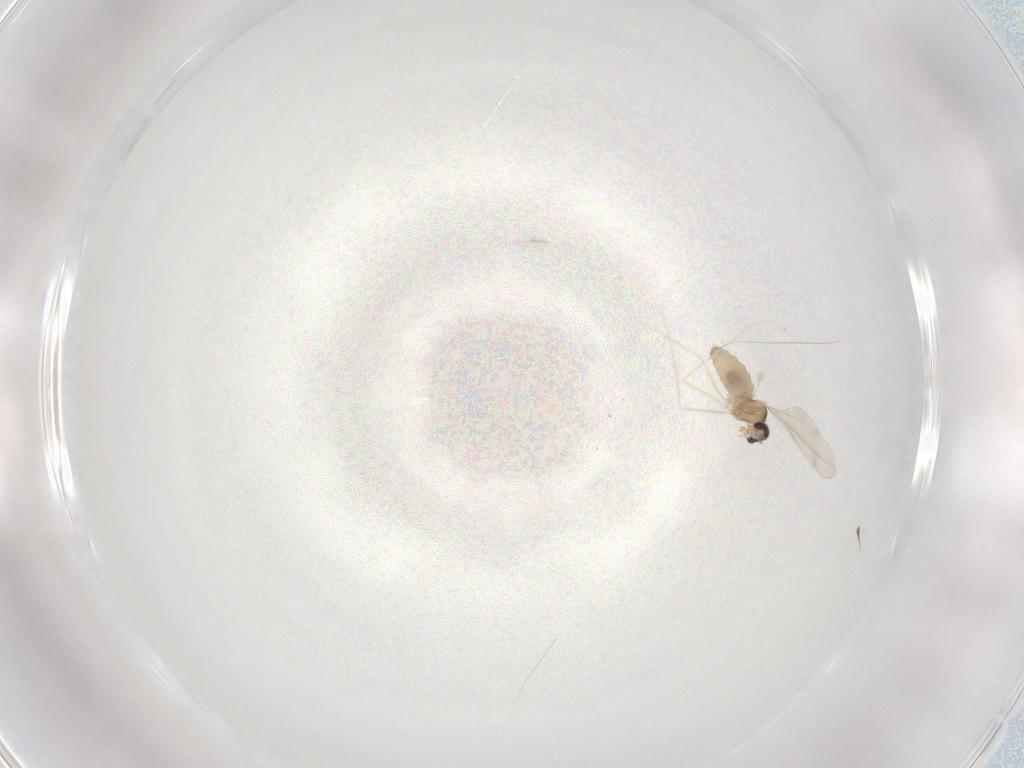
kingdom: Animalia
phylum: Arthropoda
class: Insecta
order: Diptera
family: Cecidomyiidae
